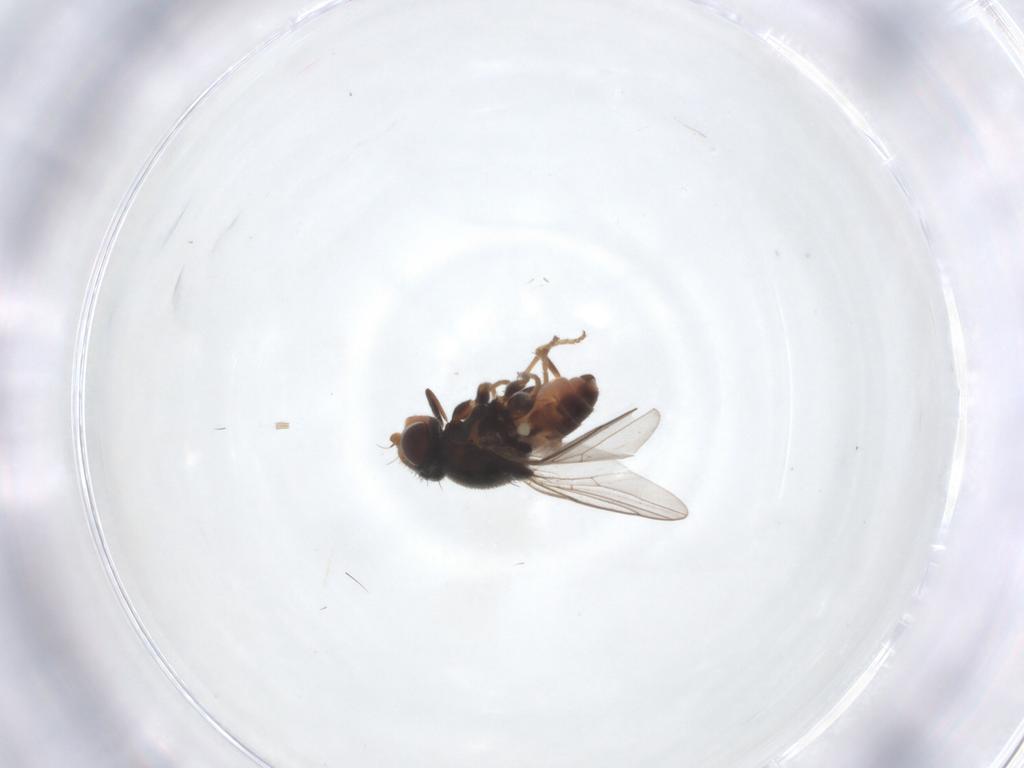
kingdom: Animalia
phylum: Arthropoda
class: Insecta
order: Diptera
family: Chloropidae
